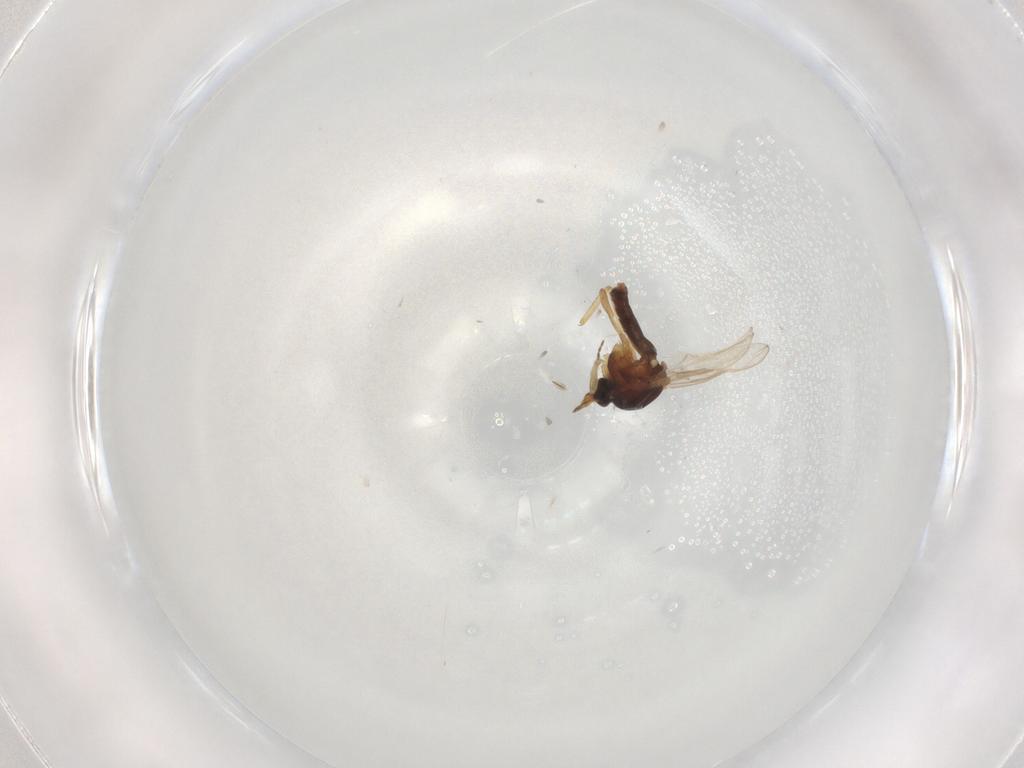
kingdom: Animalia
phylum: Arthropoda
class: Insecta
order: Diptera
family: Ceratopogonidae
